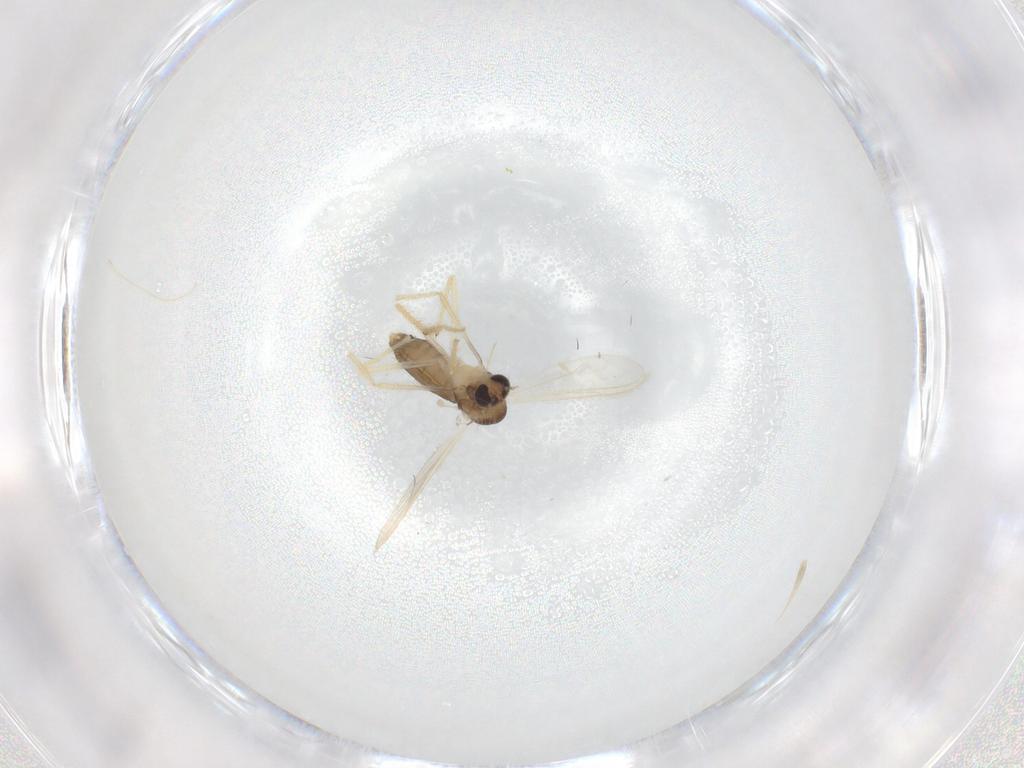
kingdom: Animalia
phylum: Arthropoda
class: Insecta
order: Diptera
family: Chironomidae
